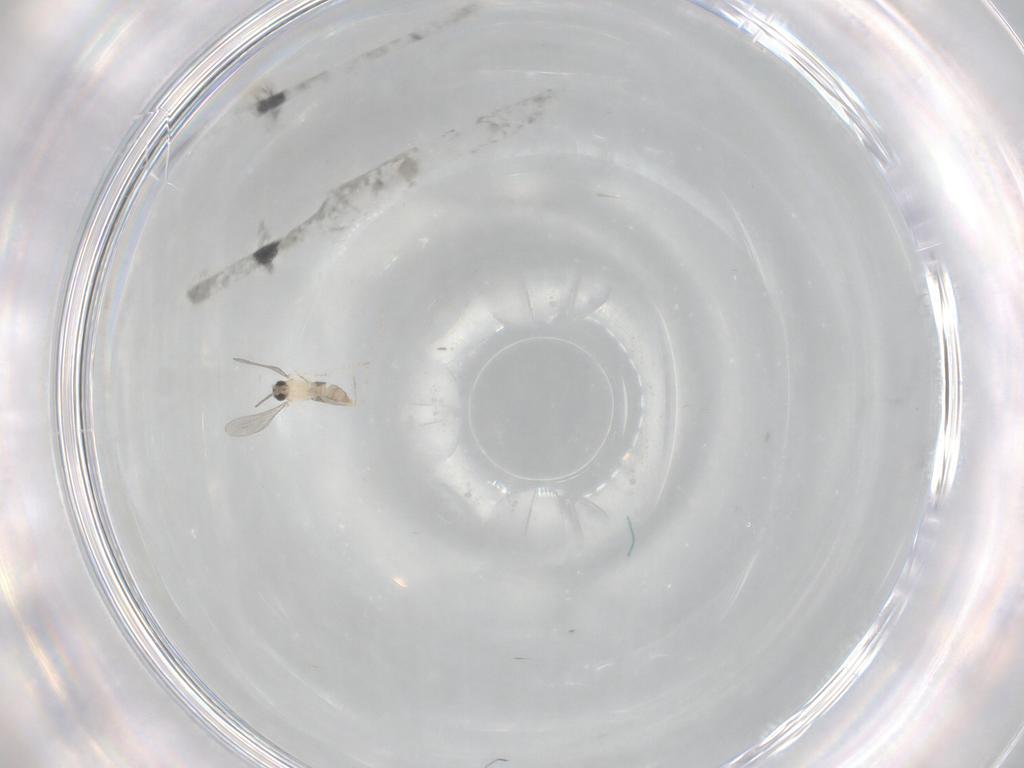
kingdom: Animalia
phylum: Arthropoda
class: Insecta
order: Diptera
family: Cecidomyiidae
